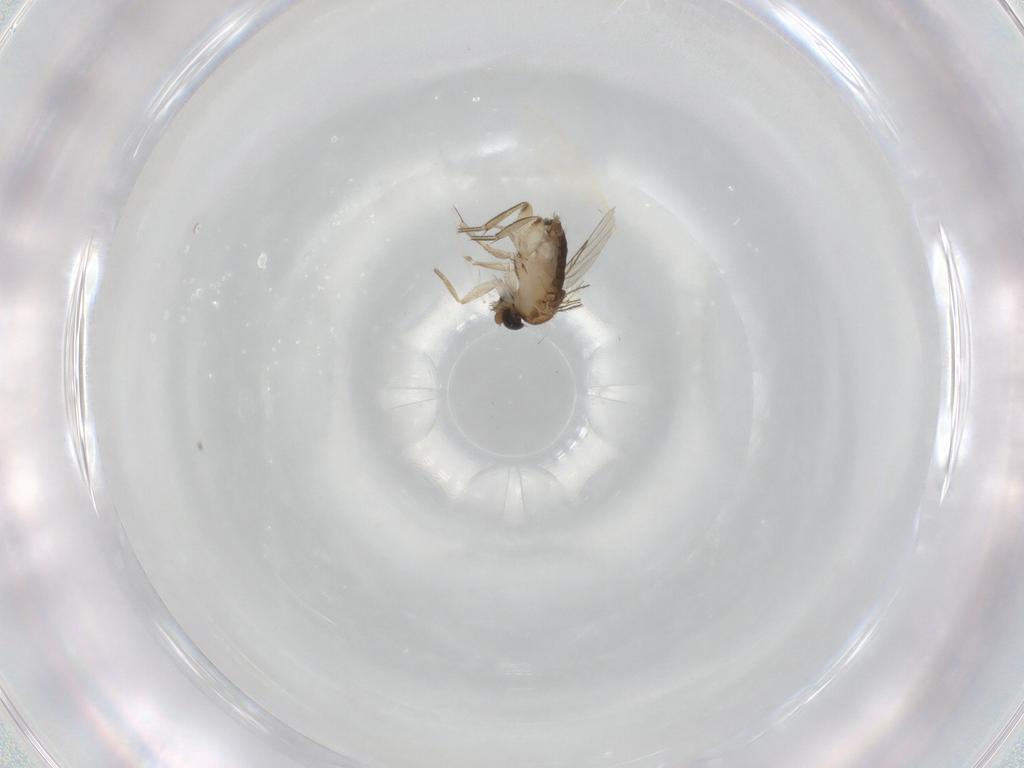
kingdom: Animalia
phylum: Arthropoda
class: Insecta
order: Diptera
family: Phoridae
